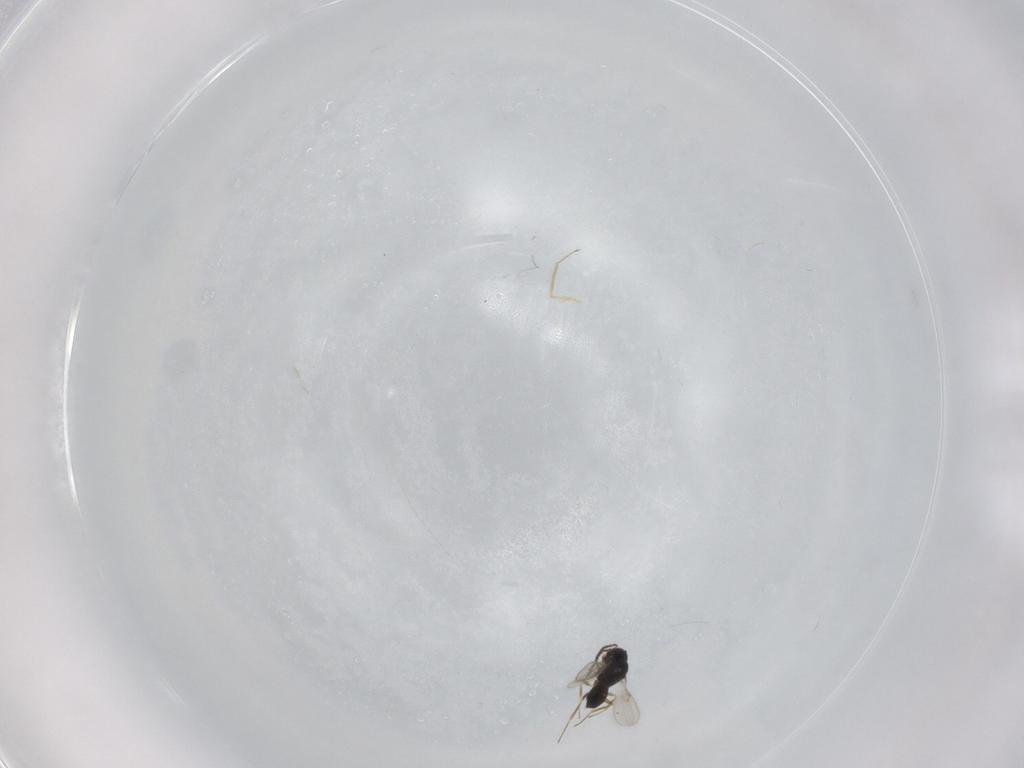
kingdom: Animalia
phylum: Arthropoda
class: Insecta
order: Hymenoptera
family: Scelionidae
